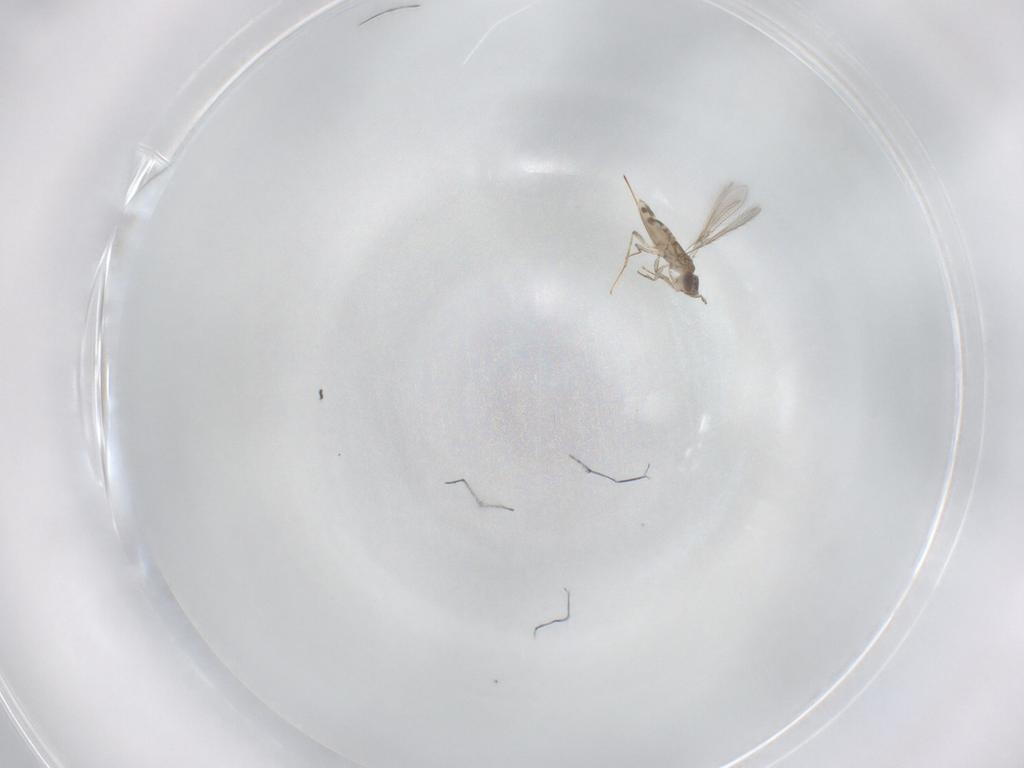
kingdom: Animalia
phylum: Arthropoda
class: Insecta
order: Hymenoptera
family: Mymaridae
